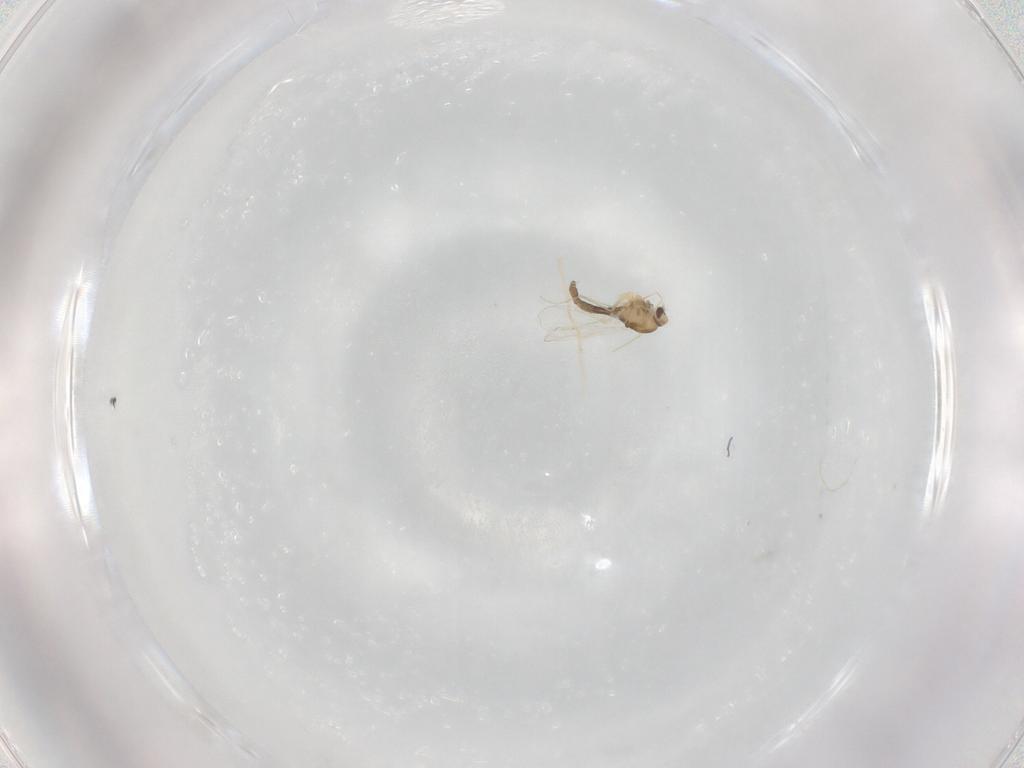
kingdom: Animalia
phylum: Arthropoda
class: Insecta
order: Diptera
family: Chironomidae
